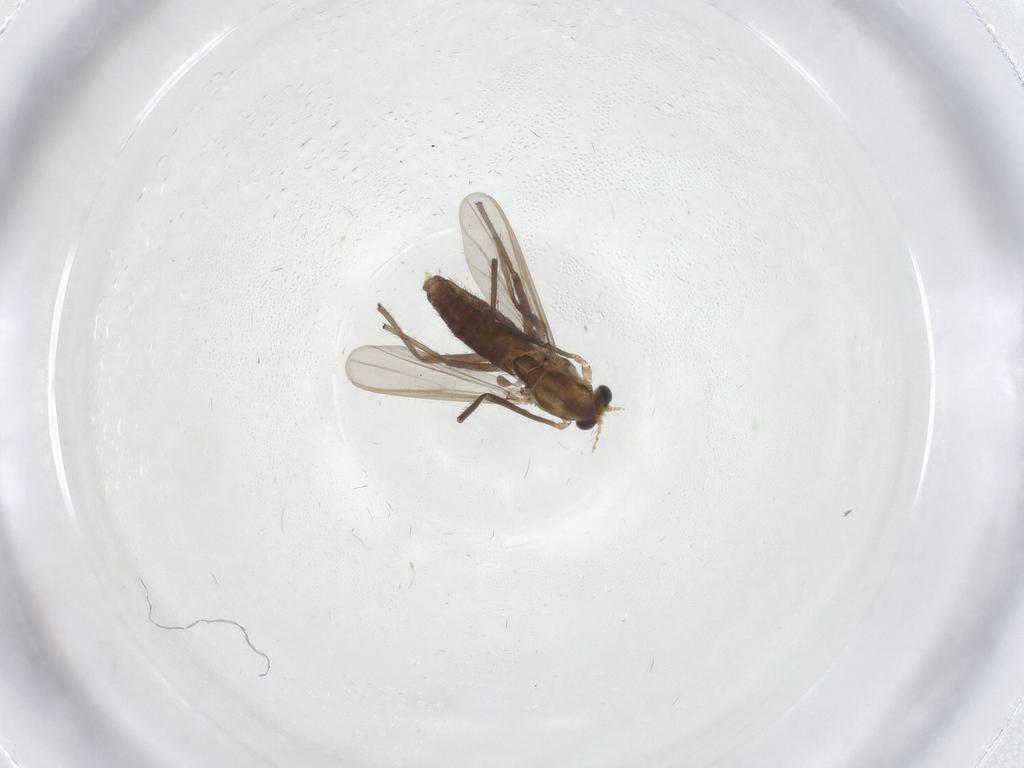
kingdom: Animalia
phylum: Arthropoda
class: Insecta
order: Diptera
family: Chironomidae
